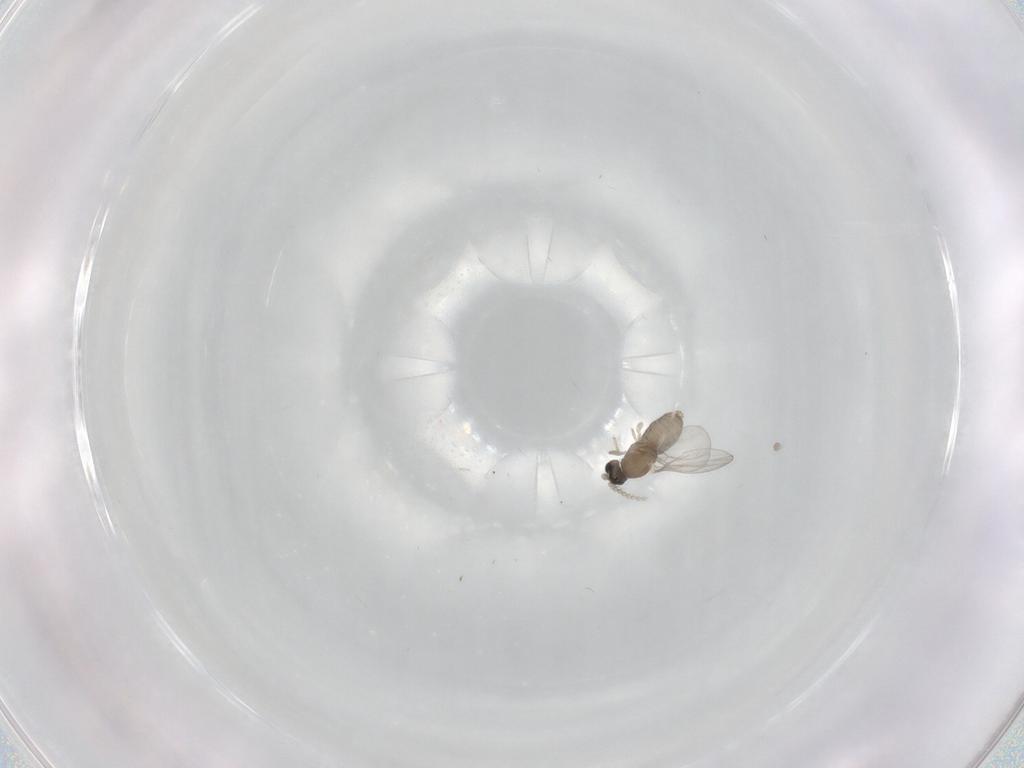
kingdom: Animalia
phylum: Arthropoda
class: Insecta
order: Diptera
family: Cecidomyiidae
